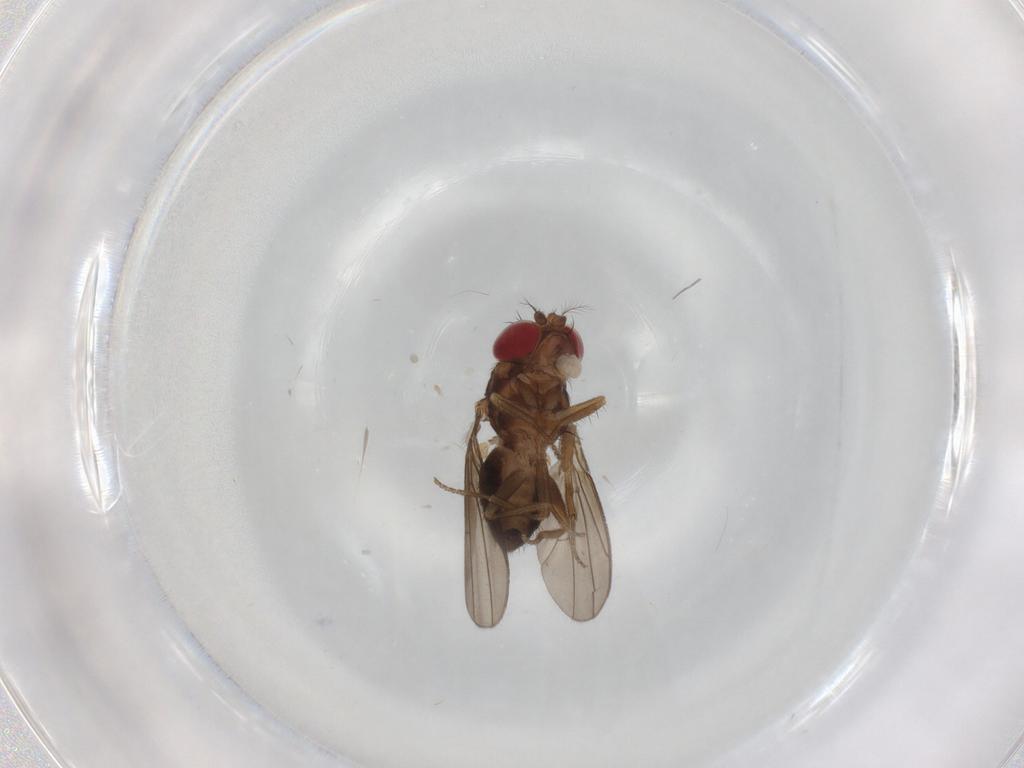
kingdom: Animalia
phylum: Arthropoda
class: Insecta
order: Diptera
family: Drosophilidae
